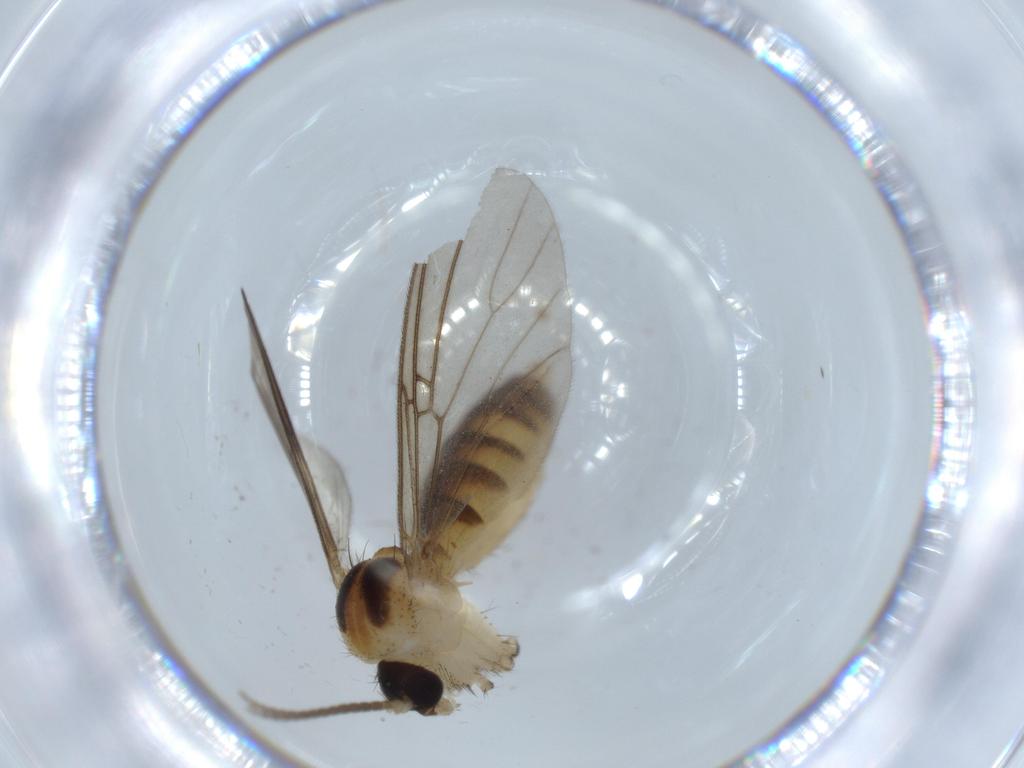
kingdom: Animalia
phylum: Arthropoda
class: Insecta
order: Diptera
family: Mycetophilidae
